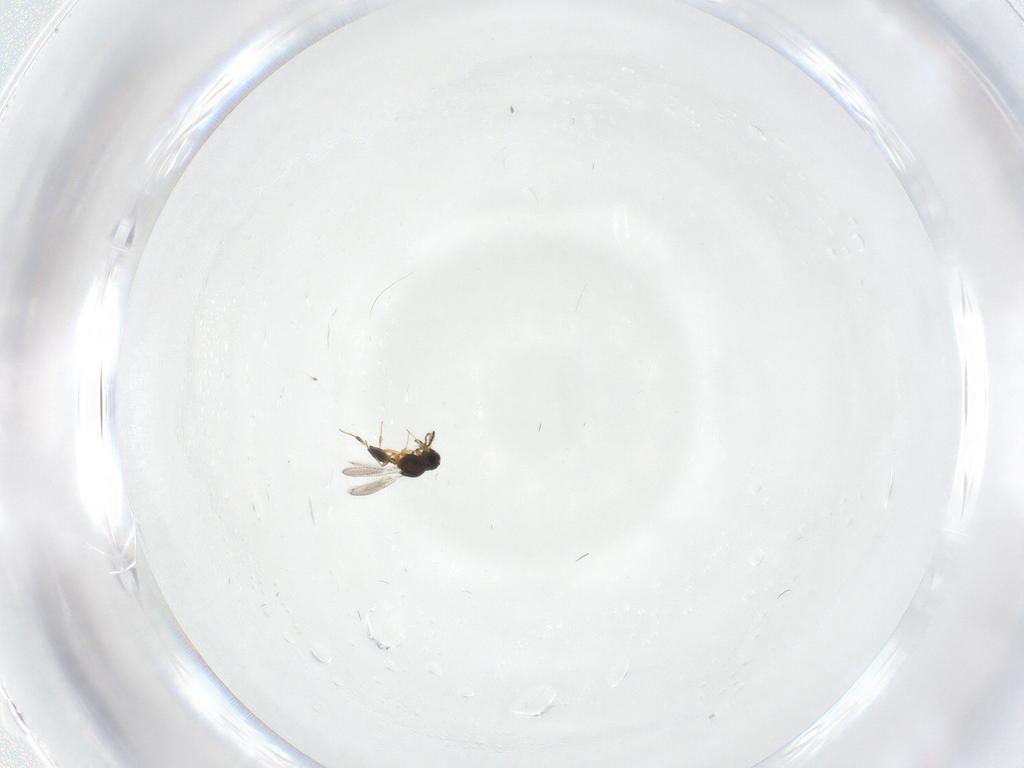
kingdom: Animalia
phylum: Arthropoda
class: Insecta
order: Hymenoptera
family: Platygastridae
